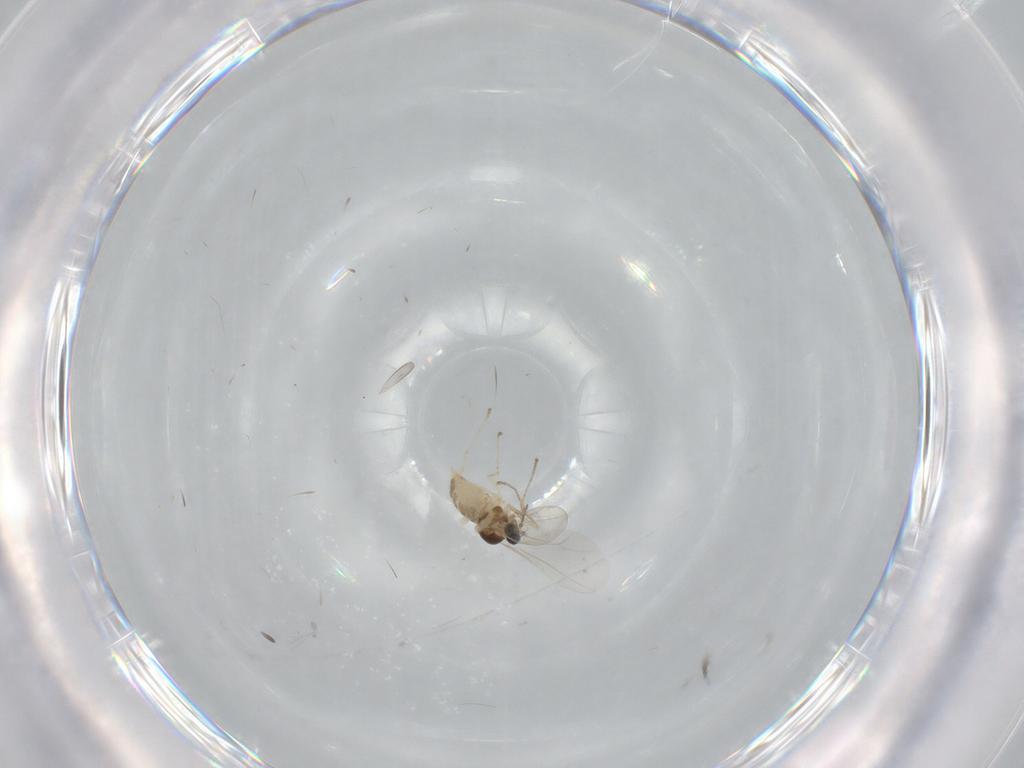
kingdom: Animalia
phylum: Arthropoda
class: Insecta
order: Diptera
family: Cecidomyiidae
